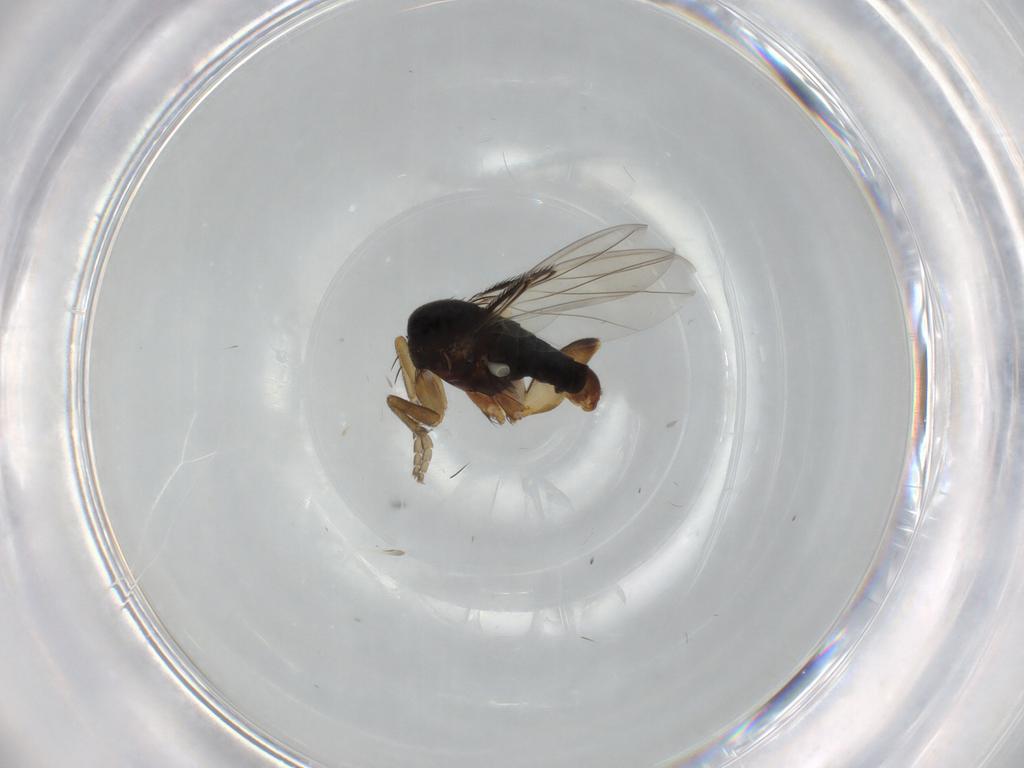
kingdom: Animalia
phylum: Arthropoda
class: Insecta
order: Diptera
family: Phoridae
